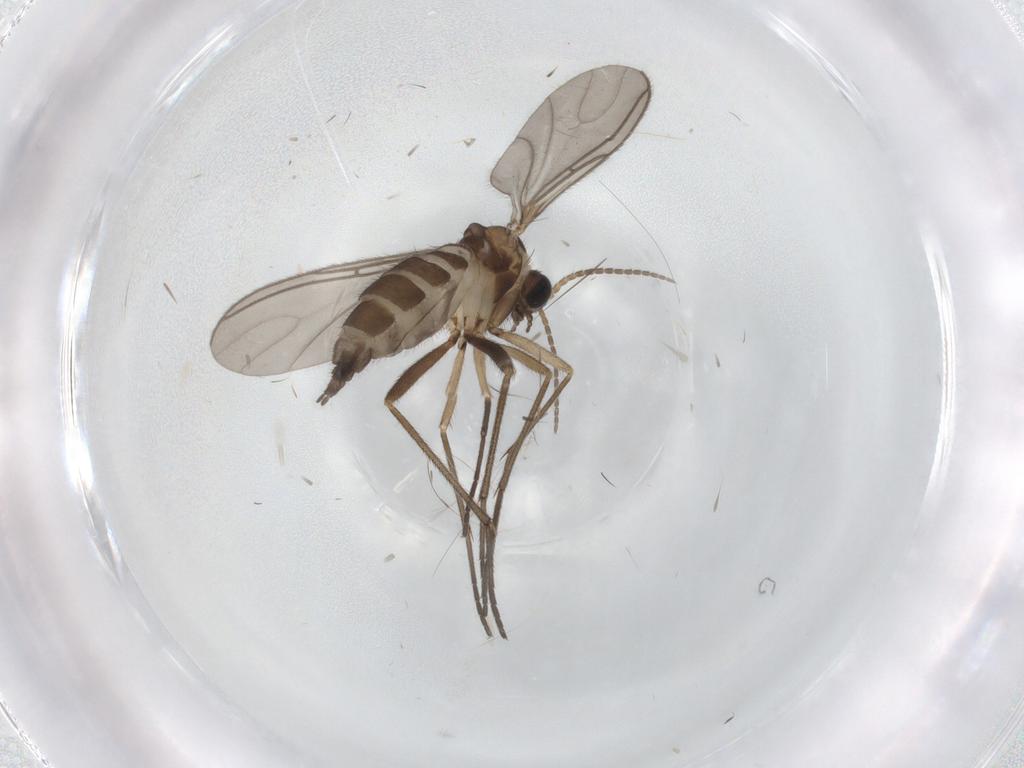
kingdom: Animalia
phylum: Arthropoda
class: Insecta
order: Diptera
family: Sciaridae
